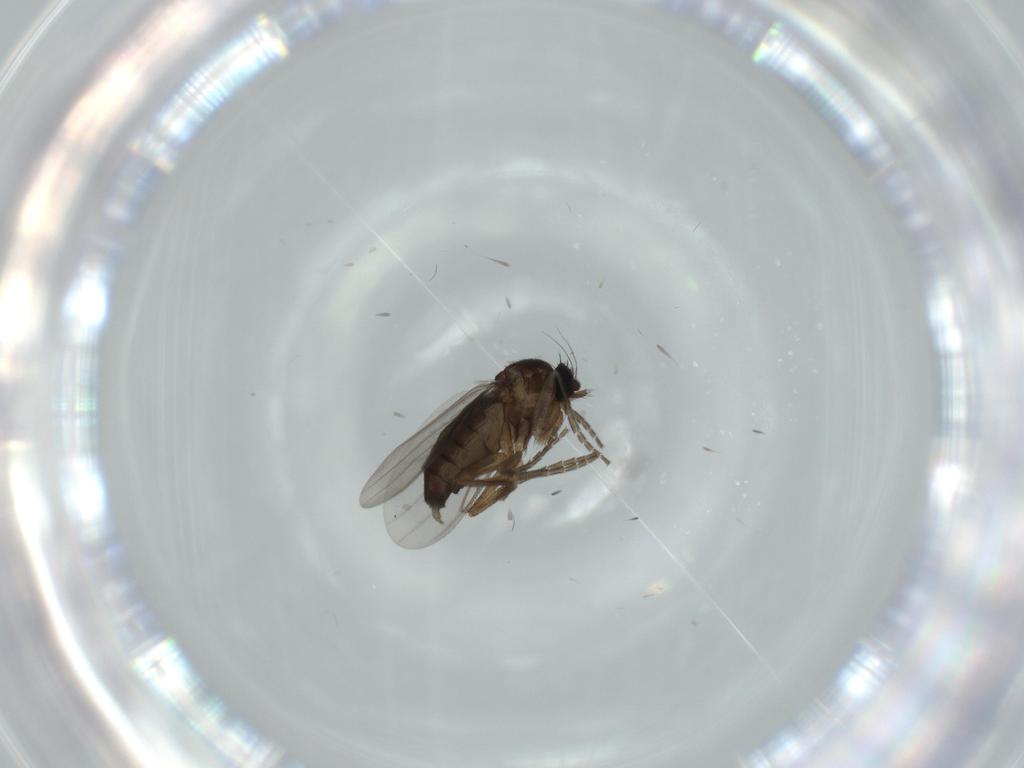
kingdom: Animalia
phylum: Arthropoda
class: Insecta
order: Diptera
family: Phoridae
